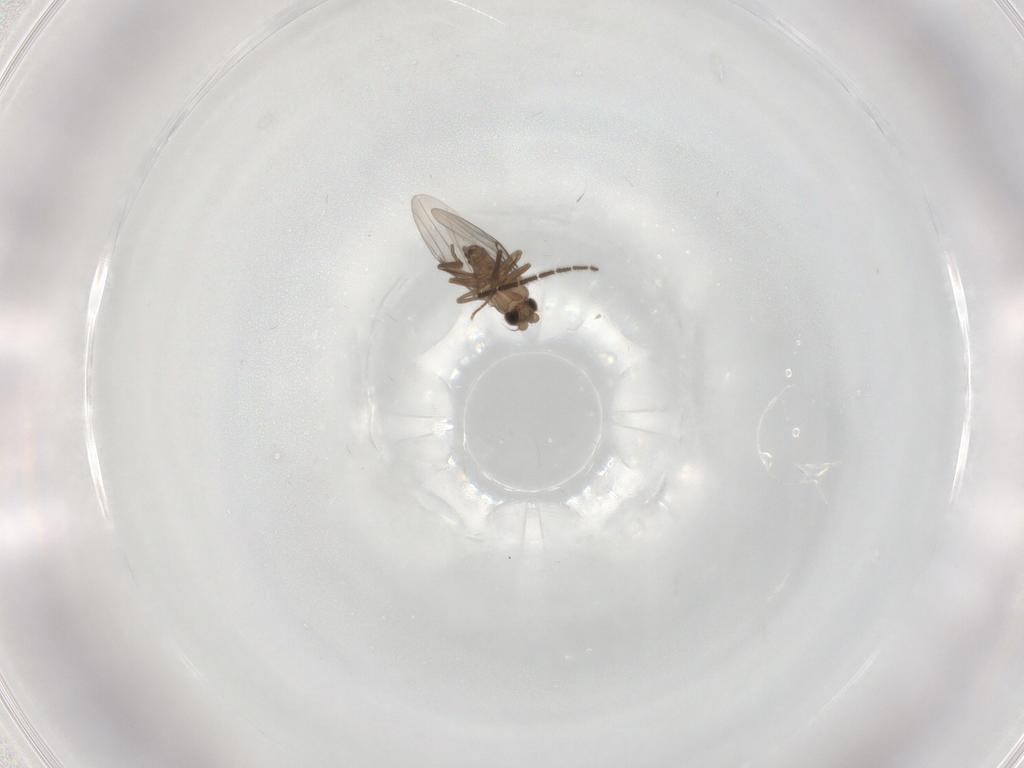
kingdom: Animalia
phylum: Arthropoda
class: Insecta
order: Diptera
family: Sciaridae
